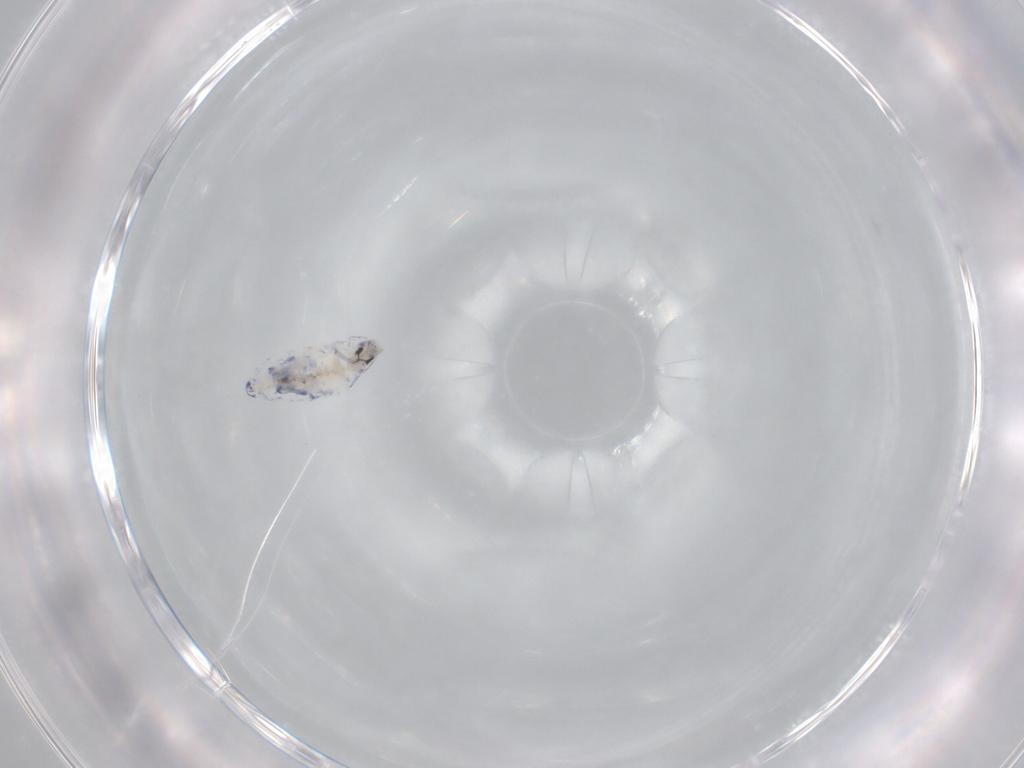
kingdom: Animalia
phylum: Arthropoda
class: Collembola
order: Entomobryomorpha
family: Entomobryidae
